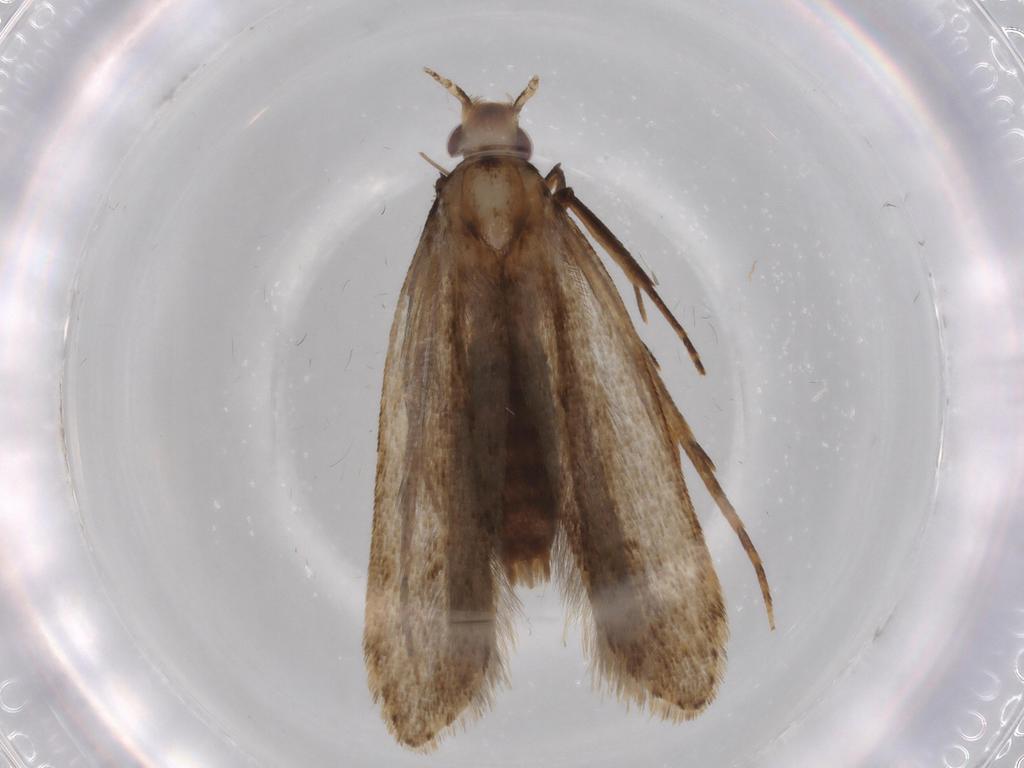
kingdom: Animalia
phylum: Arthropoda
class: Insecta
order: Lepidoptera
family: Gelechiidae
